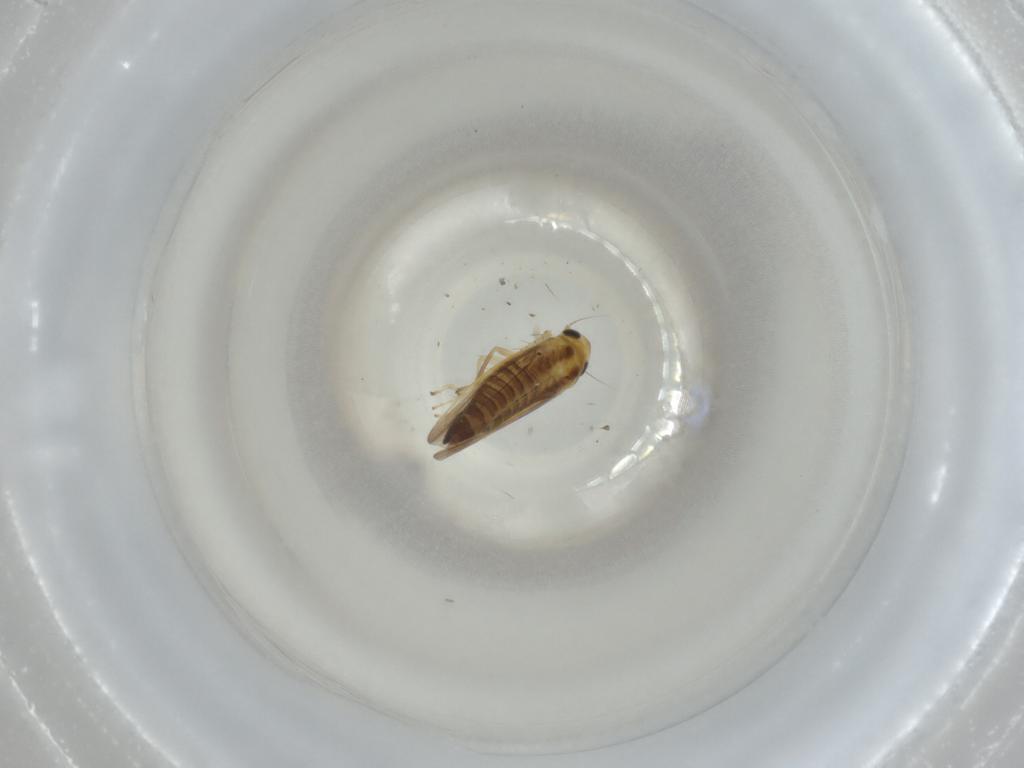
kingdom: Animalia
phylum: Arthropoda
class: Insecta
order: Hemiptera
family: Cicadellidae
